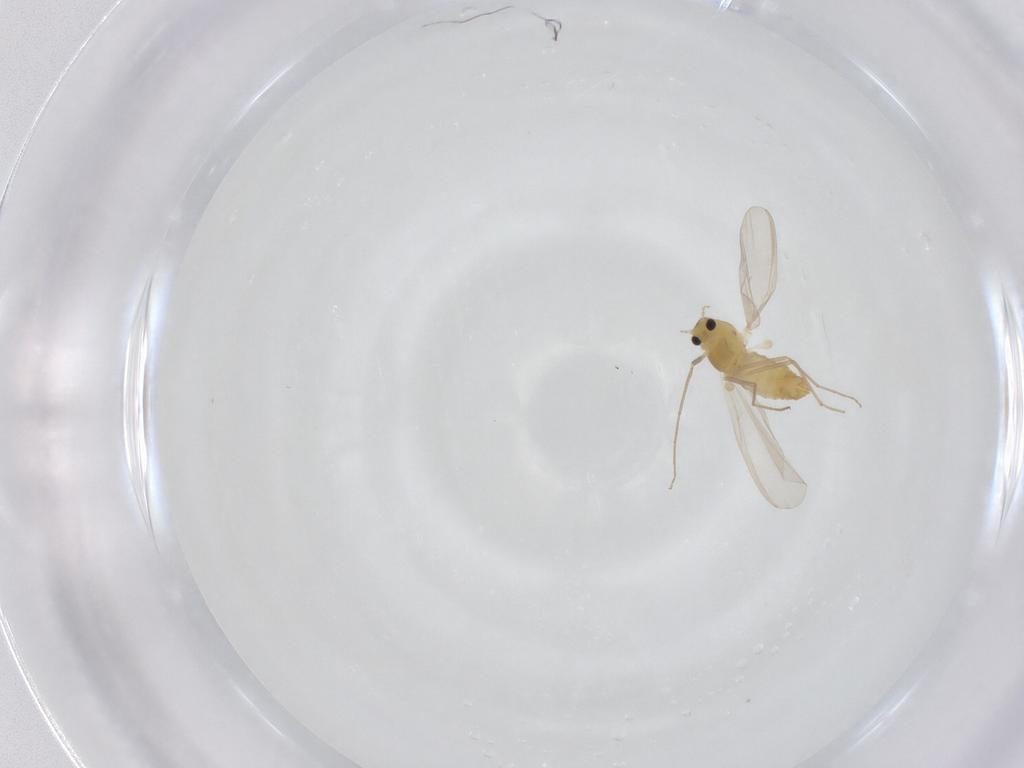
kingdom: Animalia
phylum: Arthropoda
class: Insecta
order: Diptera
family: Chironomidae
